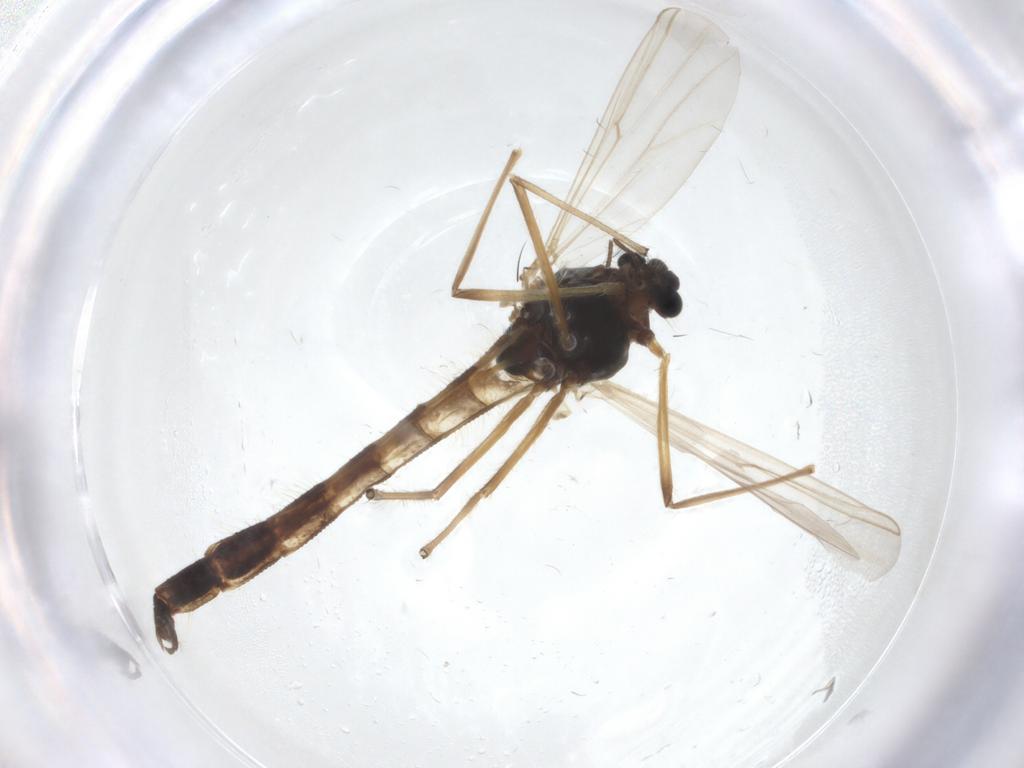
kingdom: Animalia
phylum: Arthropoda
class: Insecta
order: Diptera
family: Chironomidae
